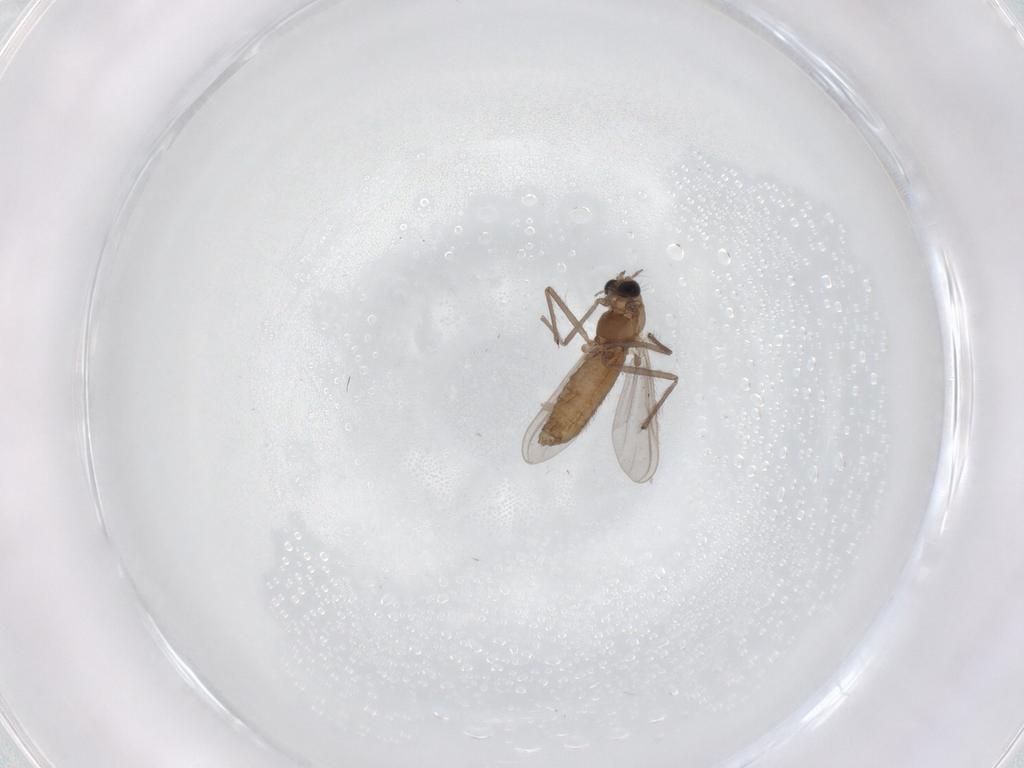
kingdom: Animalia
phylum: Arthropoda
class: Insecta
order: Diptera
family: Chironomidae
